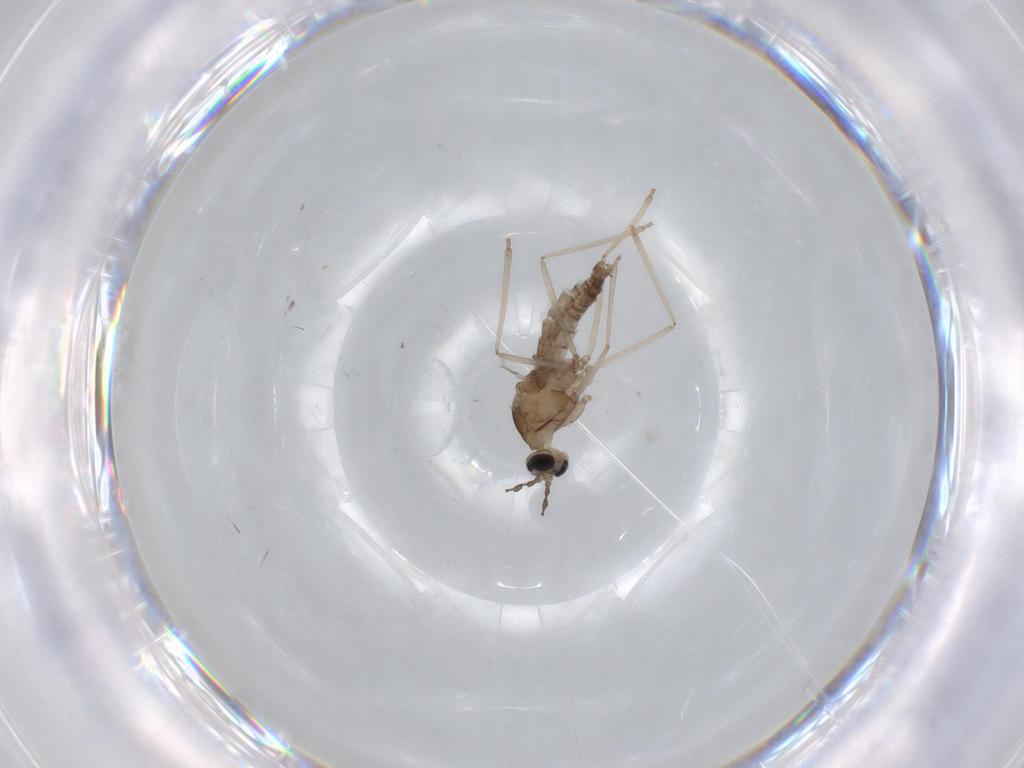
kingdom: Animalia
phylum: Arthropoda
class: Insecta
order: Diptera
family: Cecidomyiidae
